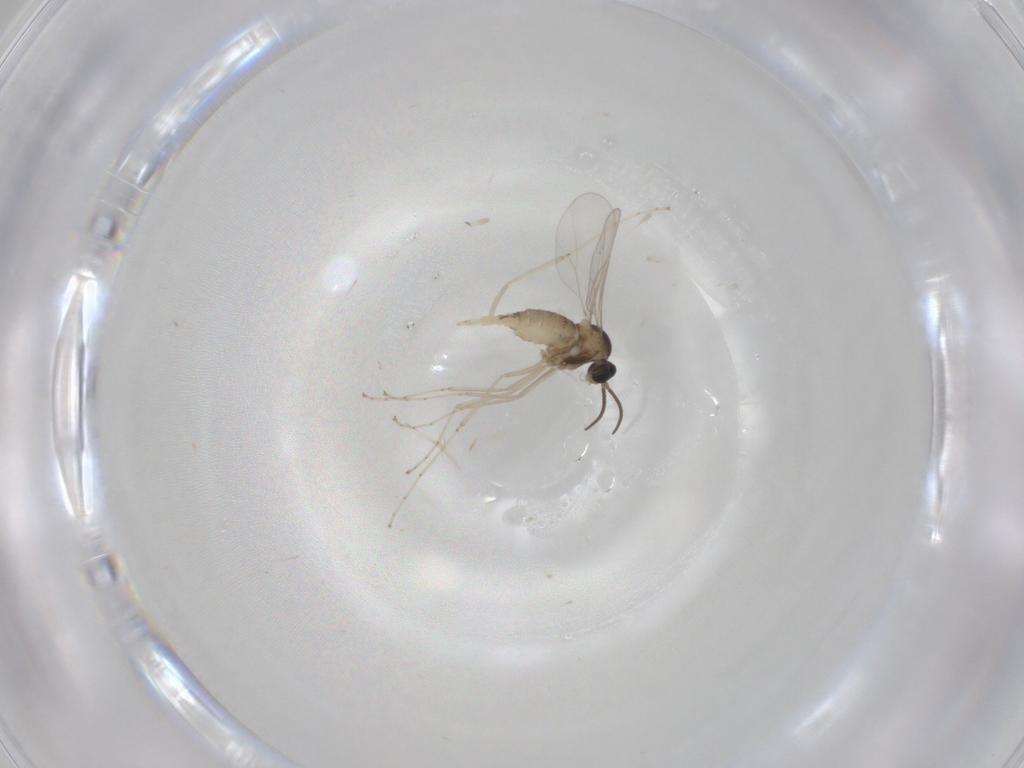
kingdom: Animalia
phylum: Arthropoda
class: Insecta
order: Diptera
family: Cecidomyiidae
